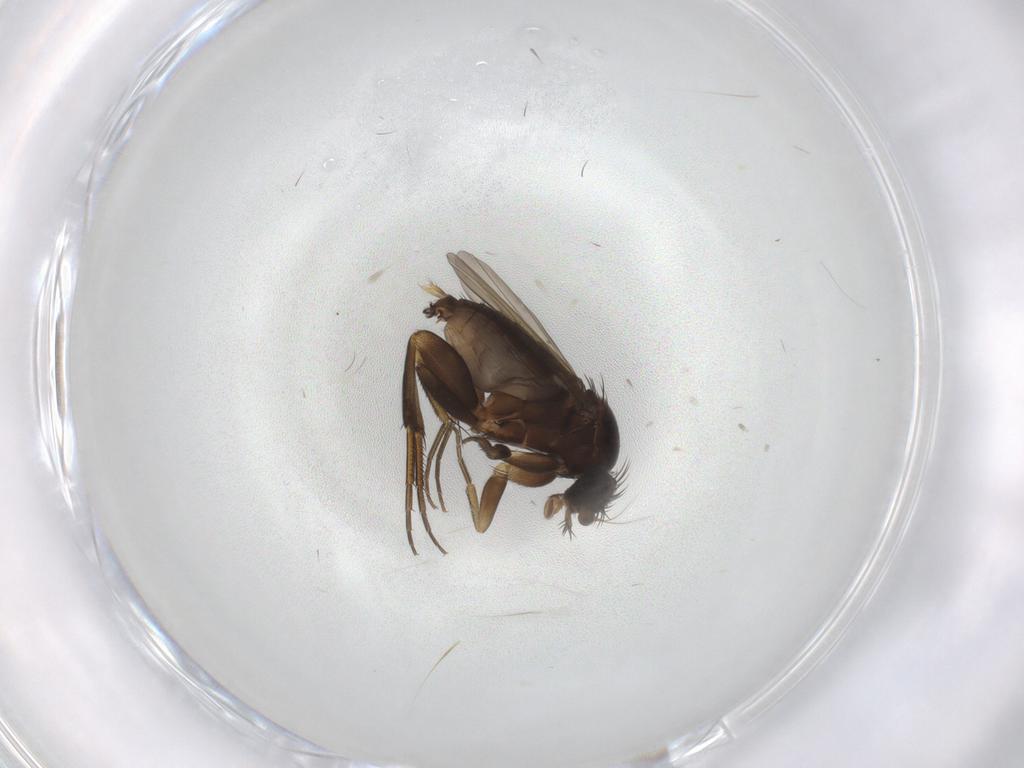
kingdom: Animalia
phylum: Arthropoda
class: Insecta
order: Diptera
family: Phoridae
